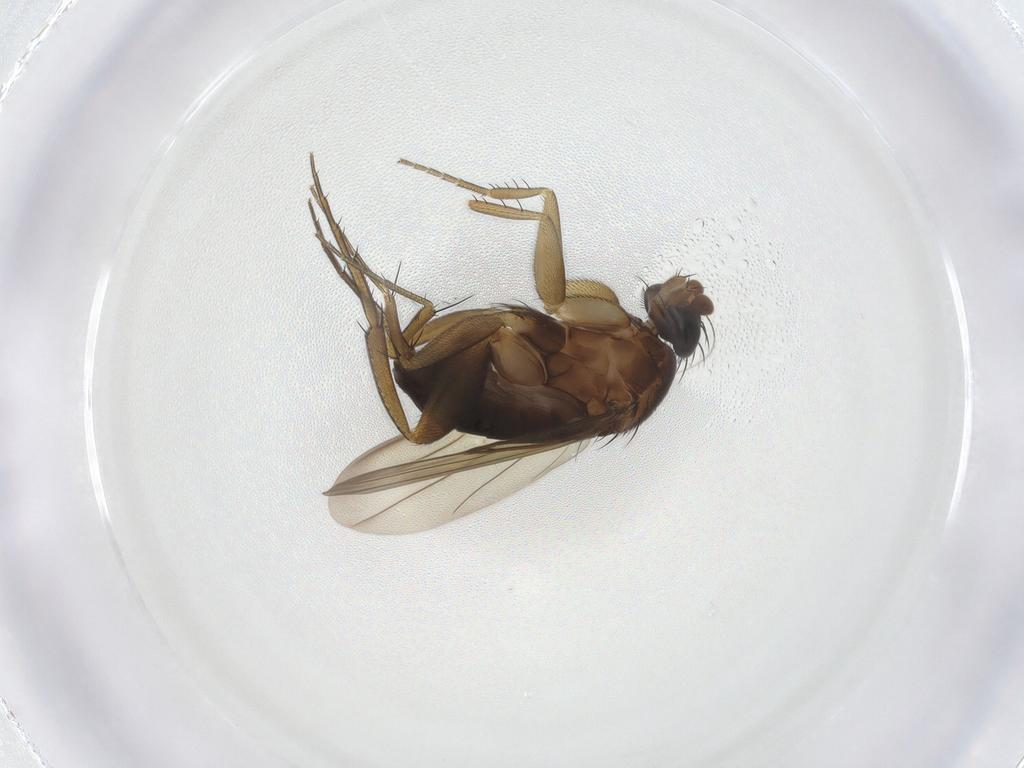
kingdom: Animalia
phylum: Arthropoda
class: Insecta
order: Diptera
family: Phoridae
